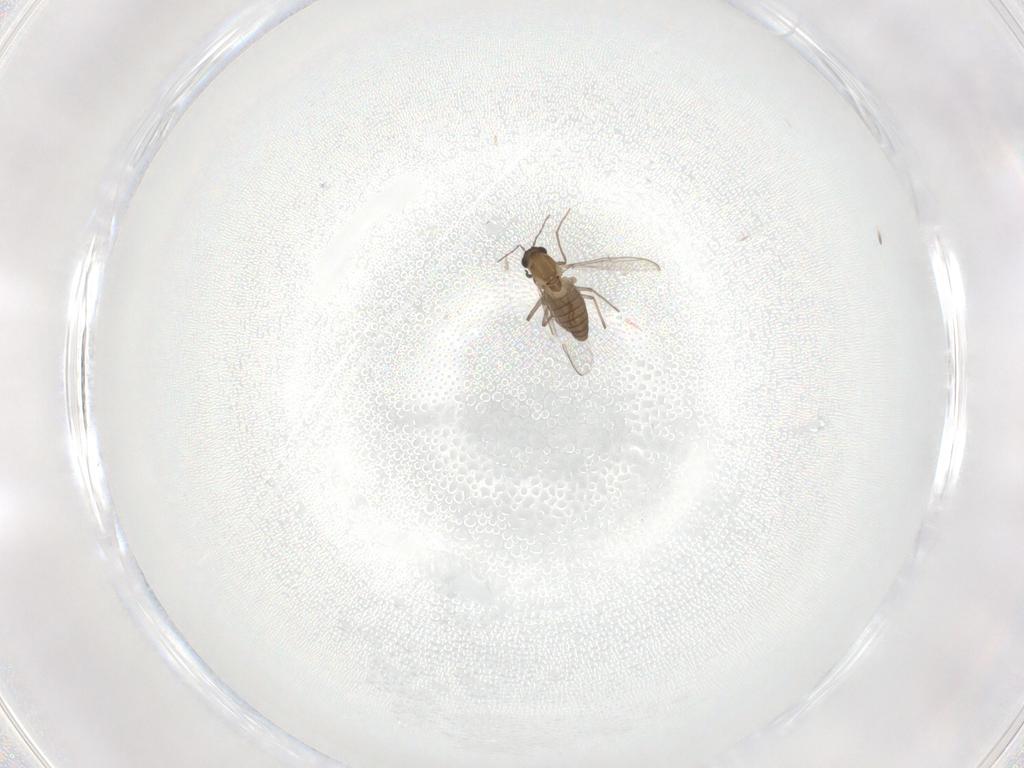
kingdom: Animalia
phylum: Arthropoda
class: Insecta
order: Diptera
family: Chironomidae
